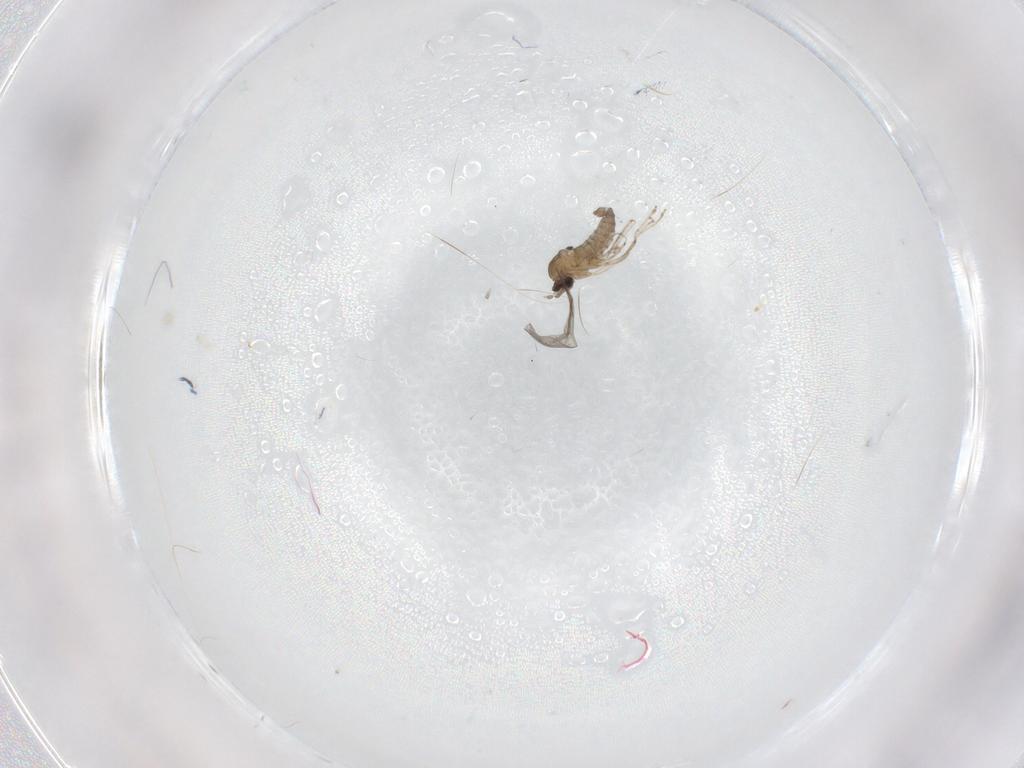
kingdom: Animalia
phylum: Arthropoda
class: Insecta
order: Diptera
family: Cecidomyiidae
